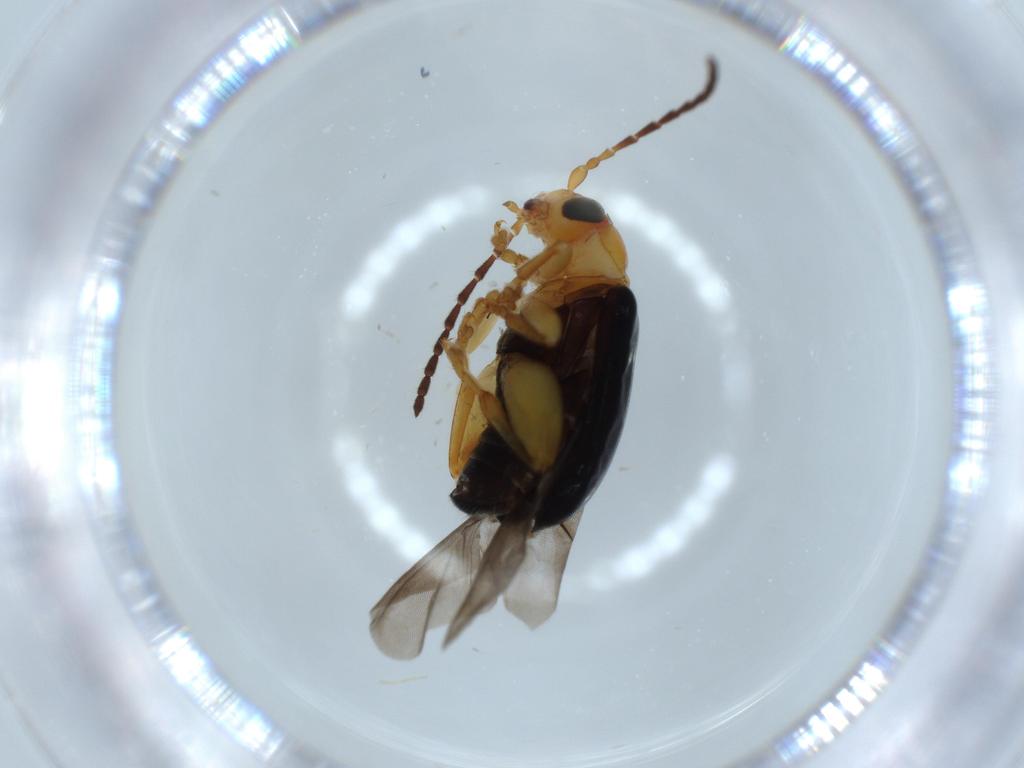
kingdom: Animalia
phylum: Arthropoda
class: Insecta
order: Coleoptera
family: Chrysomelidae
